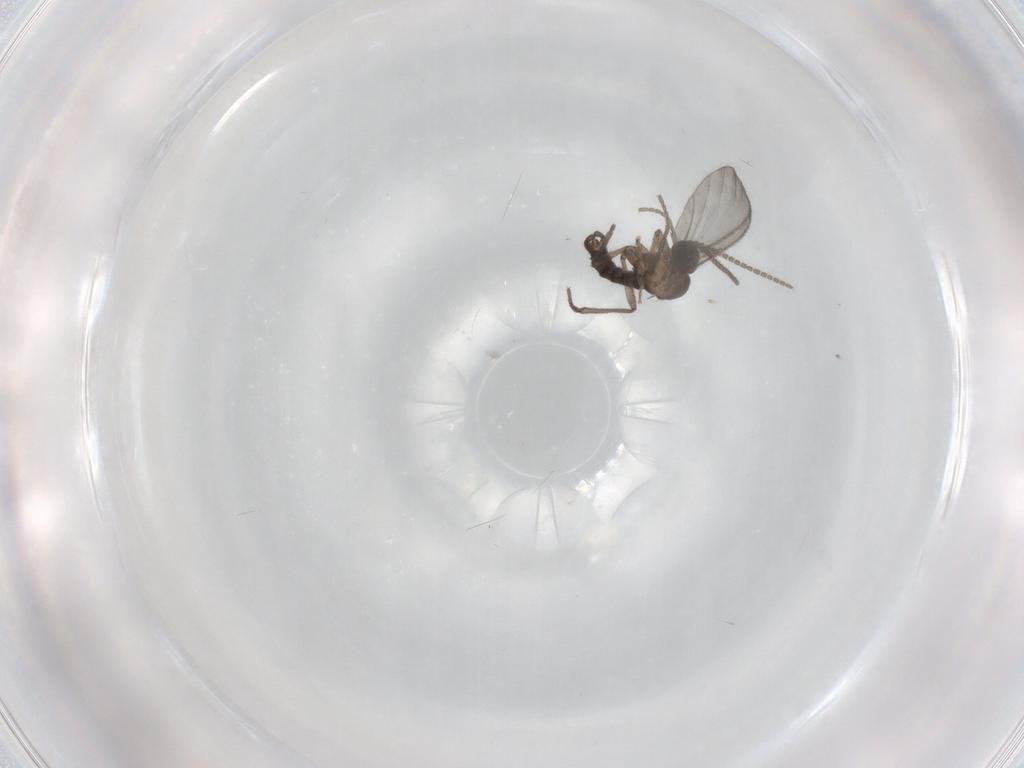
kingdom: Animalia
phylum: Arthropoda
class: Insecta
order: Diptera
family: Sciaridae
